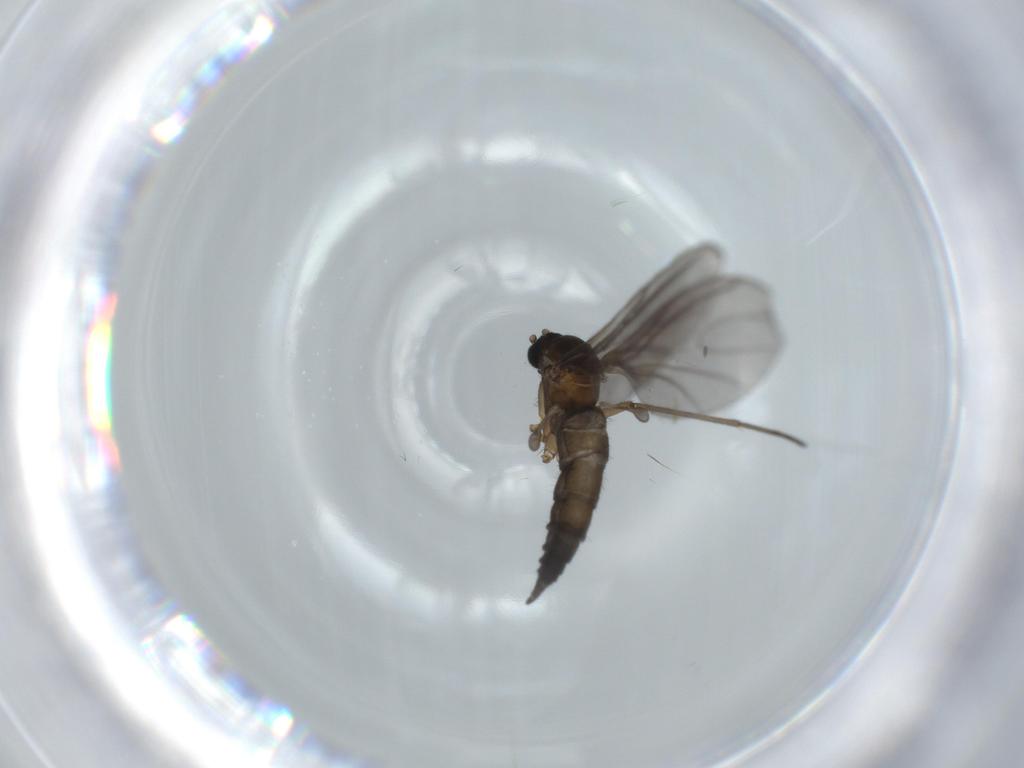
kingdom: Animalia
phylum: Arthropoda
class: Insecta
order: Diptera
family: Sciaridae
